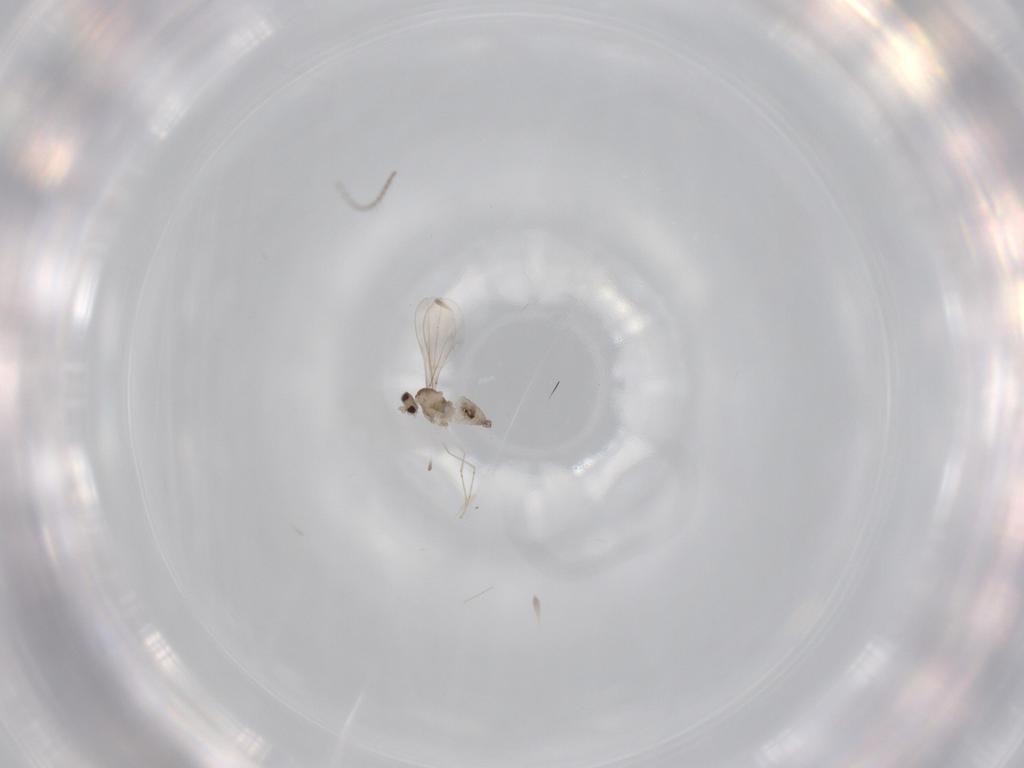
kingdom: Animalia
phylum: Arthropoda
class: Insecta
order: Diptera
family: Cecidomyiidae
